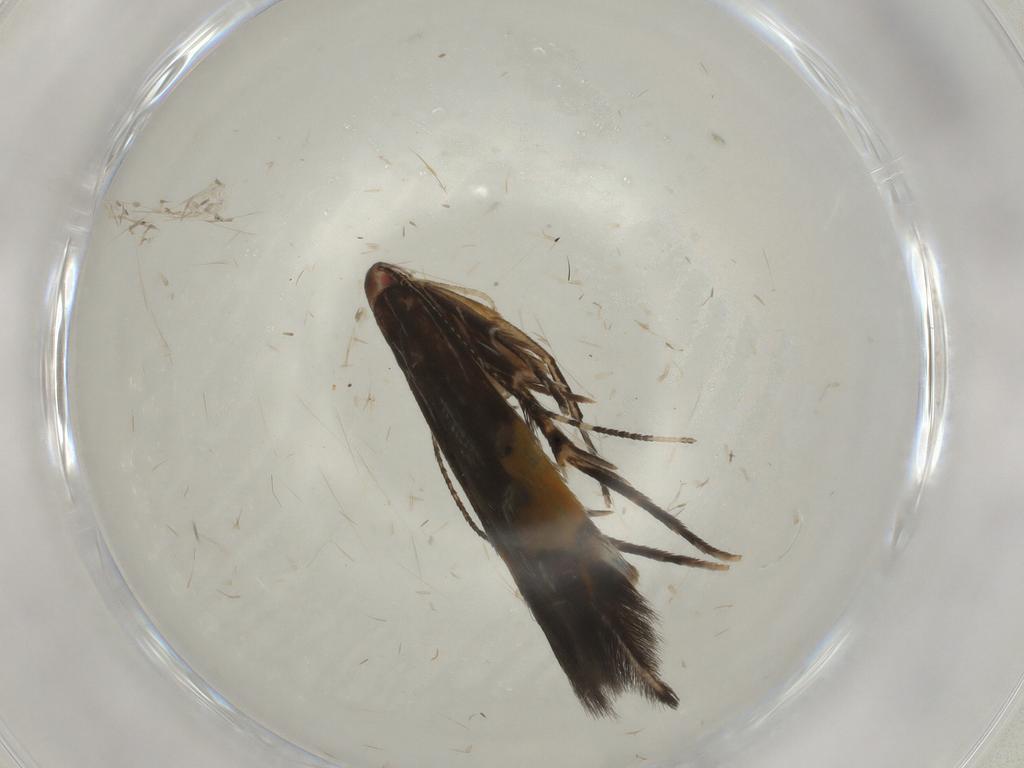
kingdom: Animalia
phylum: Arthropoda
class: Insecta
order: Lepidoptera
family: Cosmopterigidae
